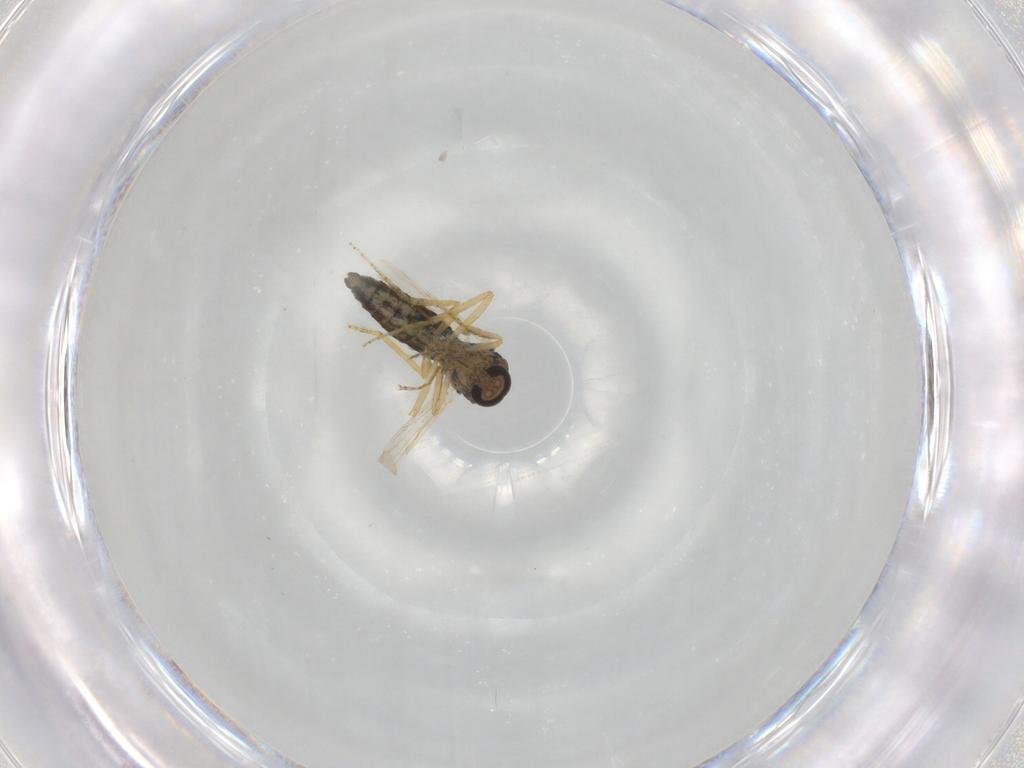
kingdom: Animalia
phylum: Arthropoda
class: Insecta
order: Diptera
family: Ceratopogonidae
